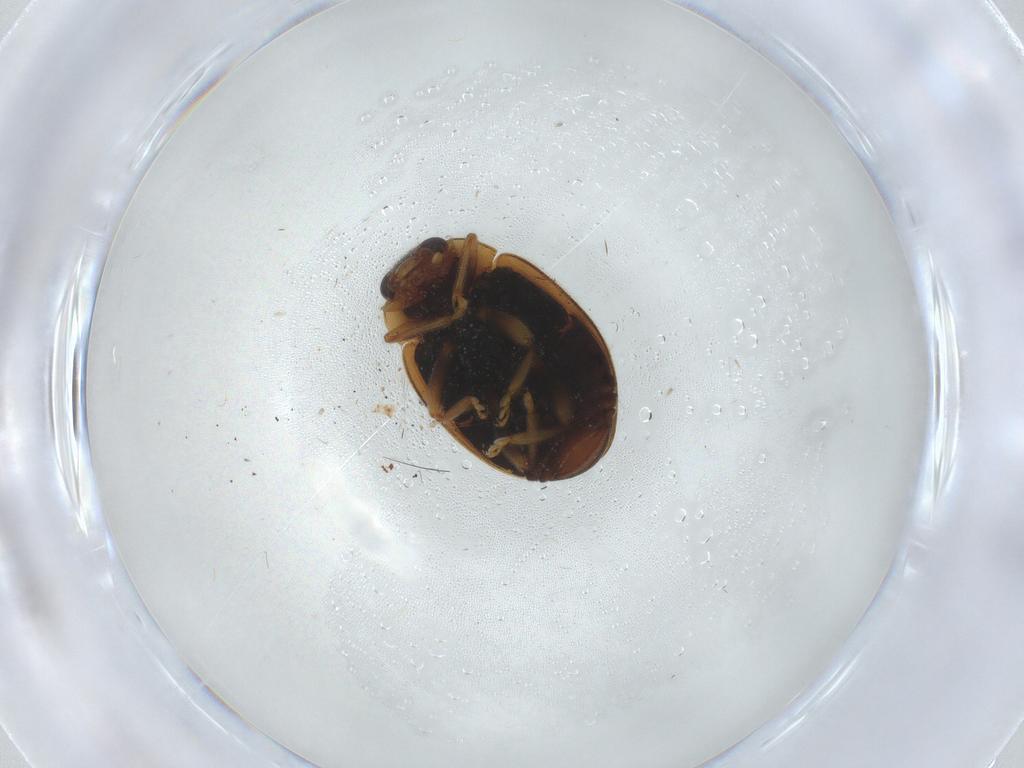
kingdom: Animalia
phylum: Arthropoda
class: Insecta
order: Coleoptera
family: Coccinellidae
